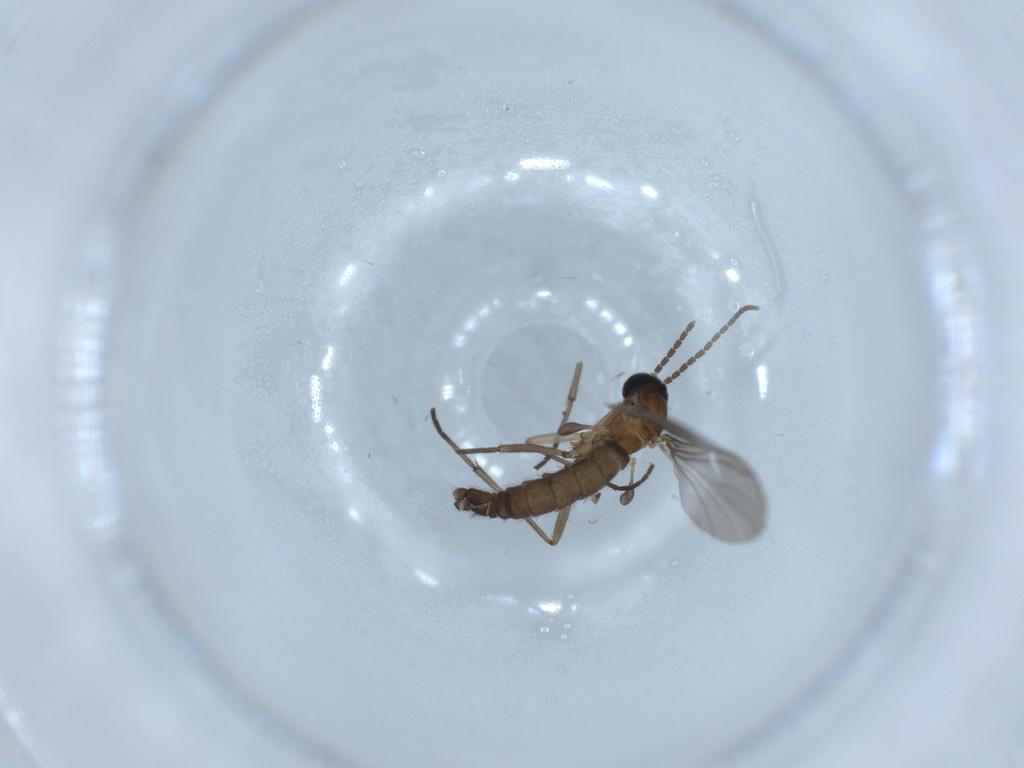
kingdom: Animalia
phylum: Arthropoda
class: Insecta
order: Diptera
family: Sciaridae
